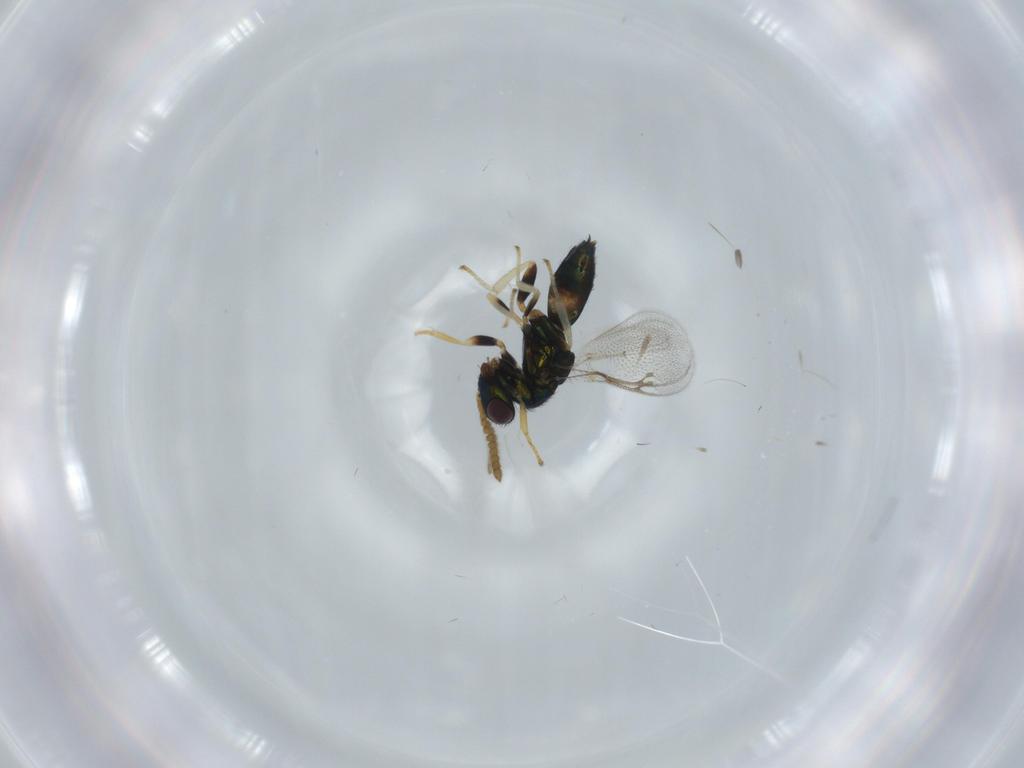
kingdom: Animalia
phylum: Arthropoda
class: Insecta
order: Hymenoptera
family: Pirenidae
